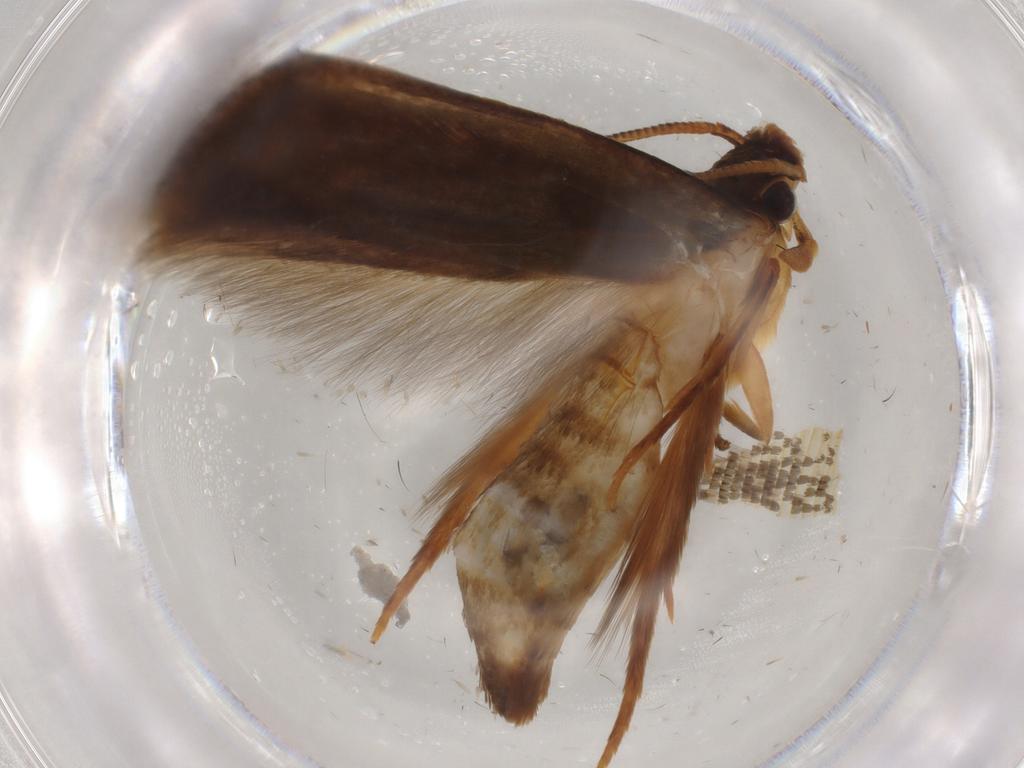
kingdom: Animalia
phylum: Arthropoda
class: Insecta
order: Lepidoptera
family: Tineidae
